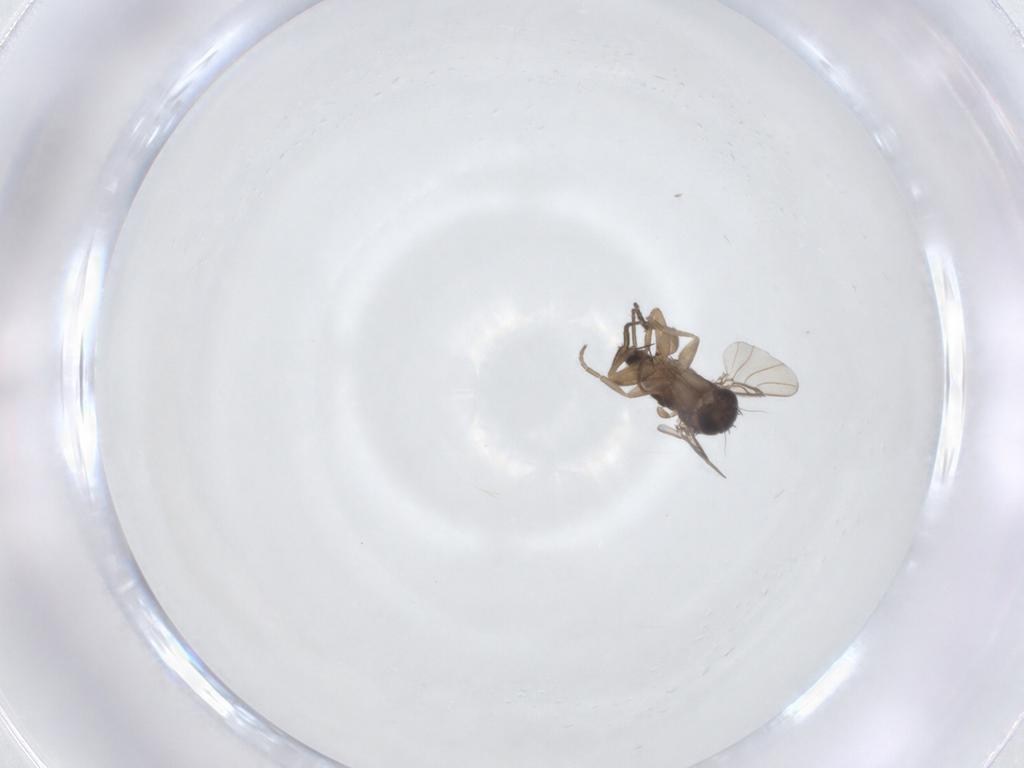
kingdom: Animalia
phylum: Arthropoda
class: Insecta
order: Diptera
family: Phoridae
